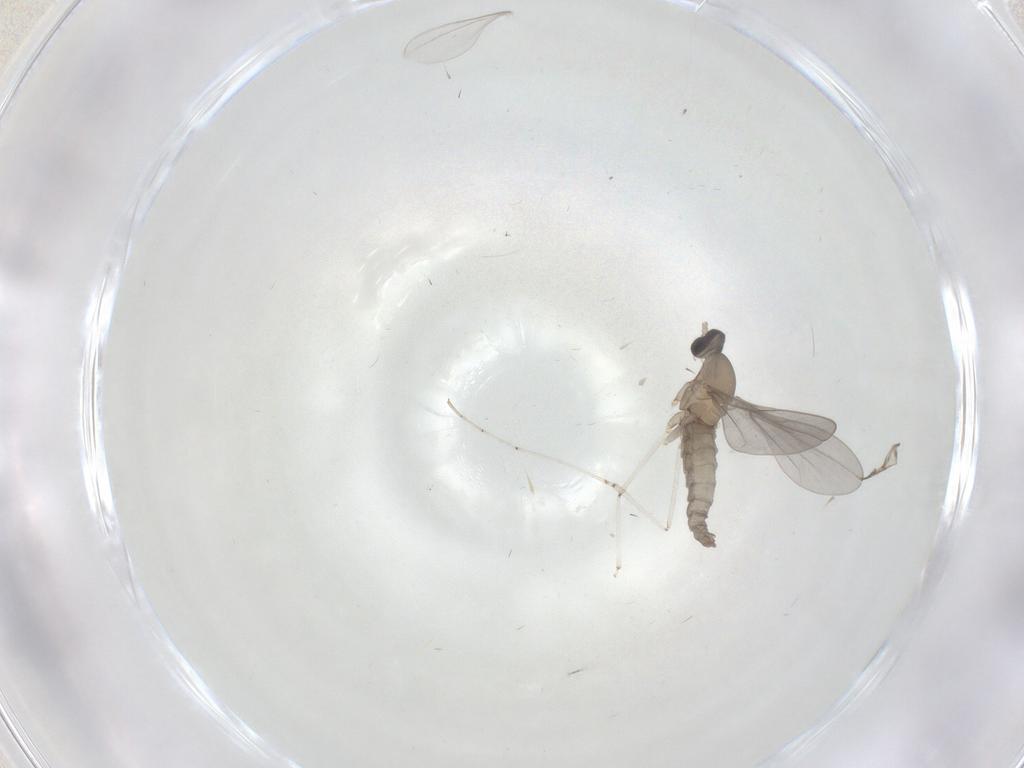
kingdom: Animalia
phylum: Arthropoda
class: Insecta
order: Diptera
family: Cecidomyiidae
